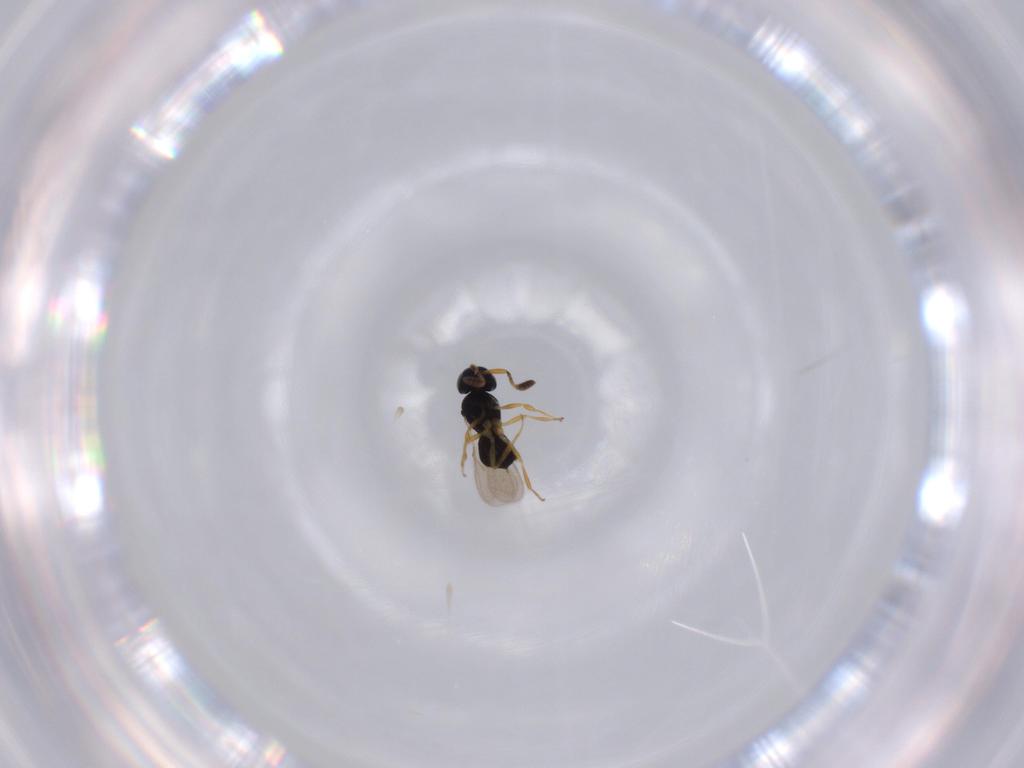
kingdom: Animalia
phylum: Arthropoda
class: Insecta
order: Hymenoptera
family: Scelionidae
